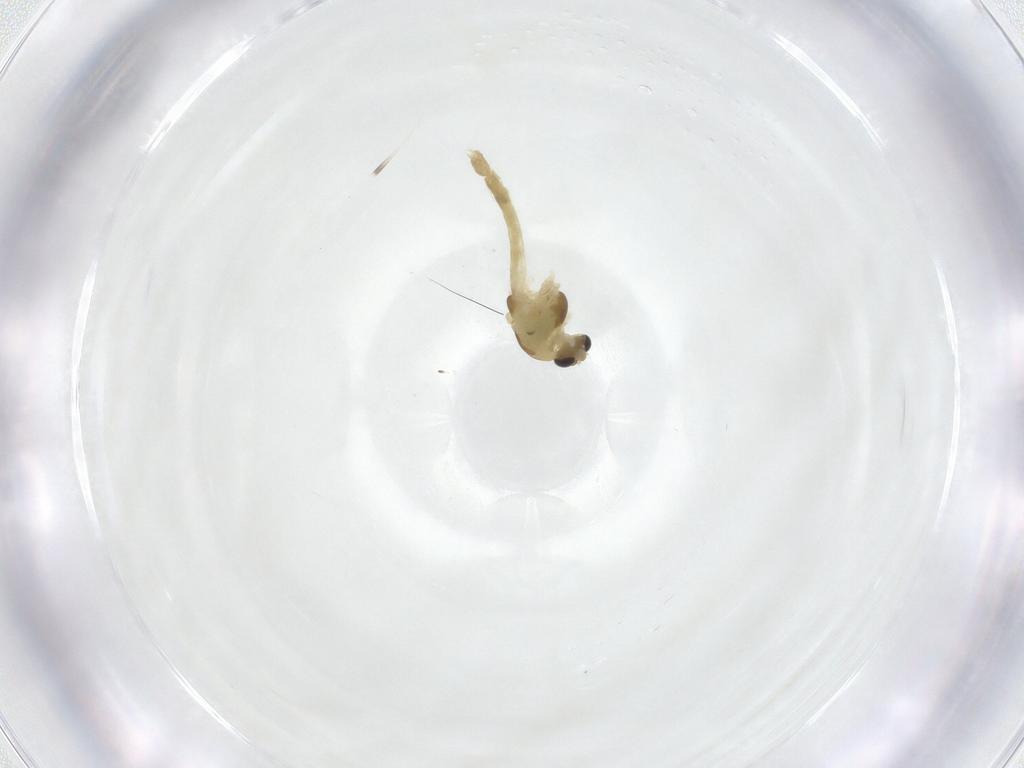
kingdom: Animalia
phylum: Arthropoda
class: Insecta
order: Diptera
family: Chironomidae
